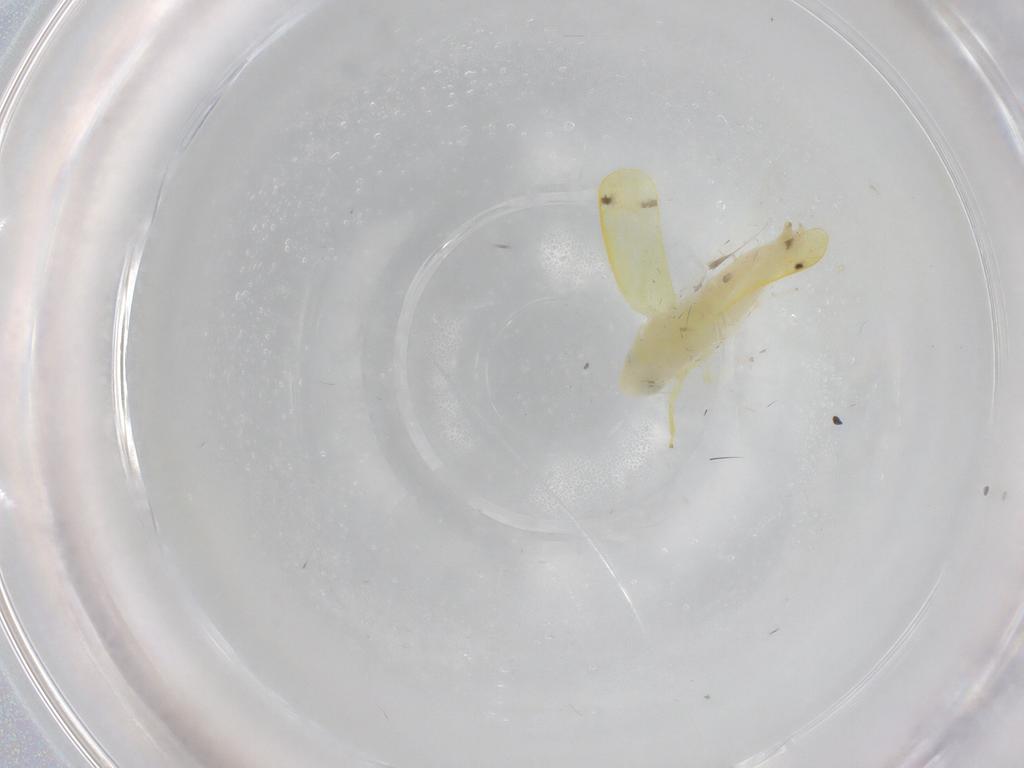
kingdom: Animalia
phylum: Arthropoda
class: Insecta
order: Hemiptera
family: Cicadellidae
